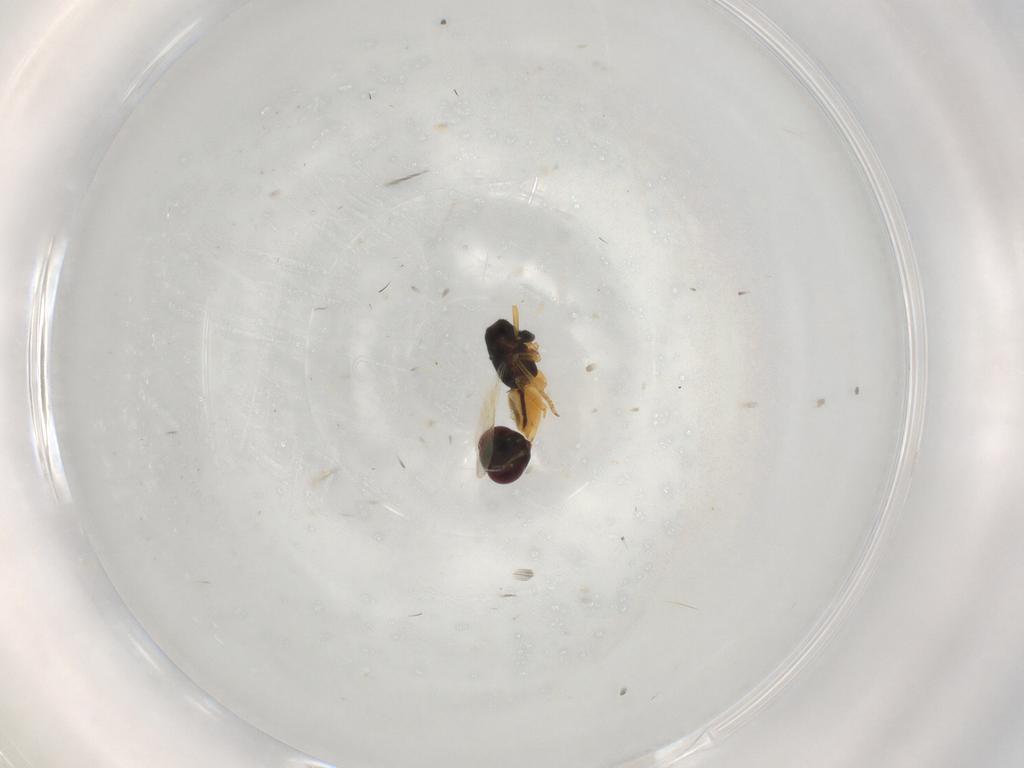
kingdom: Animalia
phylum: Arthropoda
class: Insecta
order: Hymenoptera
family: Encyrtidae
